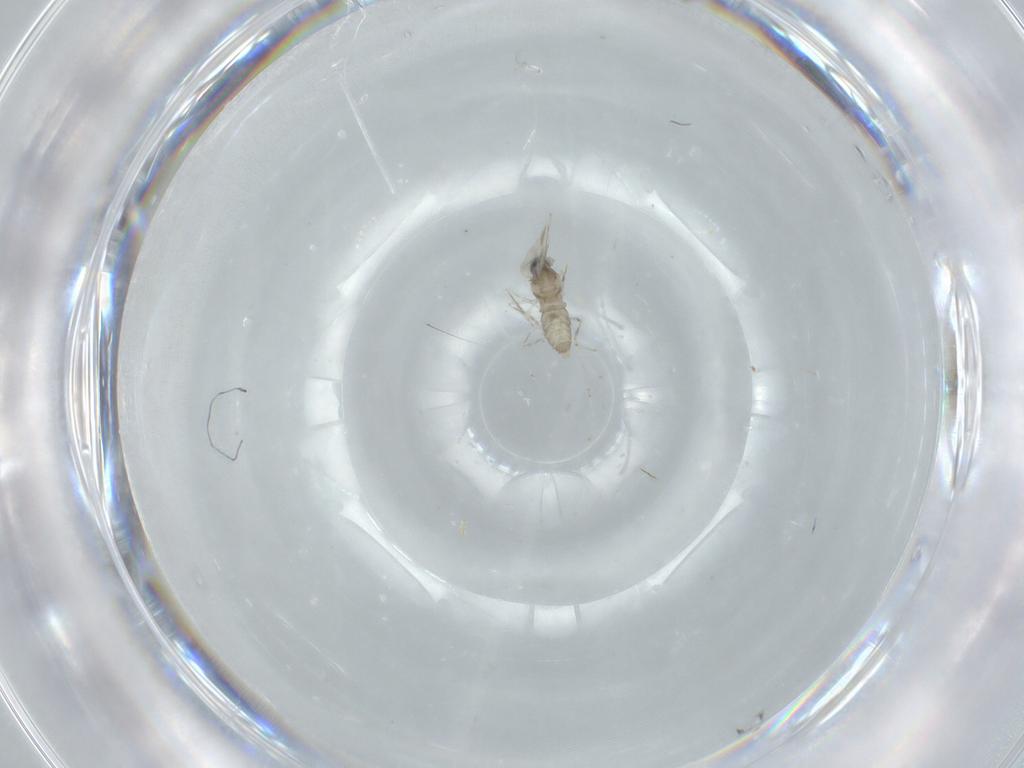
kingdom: Animalia
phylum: Arthropoda
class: Insecta
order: Diptera
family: Cecidomyiidae
